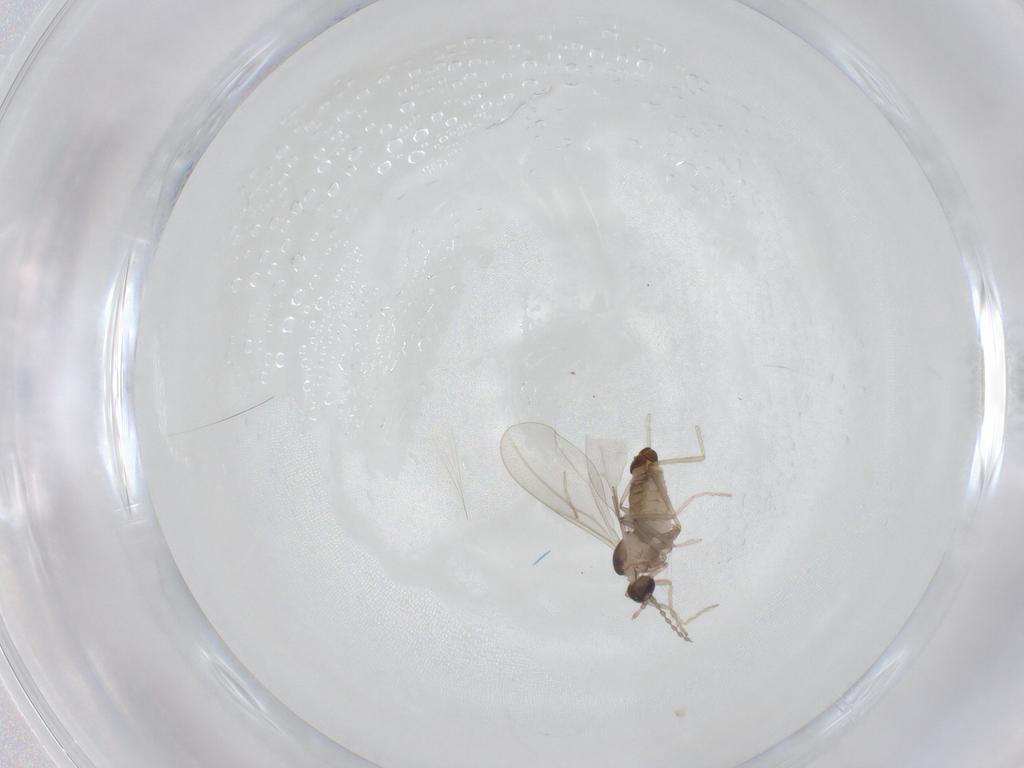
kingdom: Animalia
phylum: Arthropoda
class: Insecta
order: Diptera
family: Cecidomyiidae
